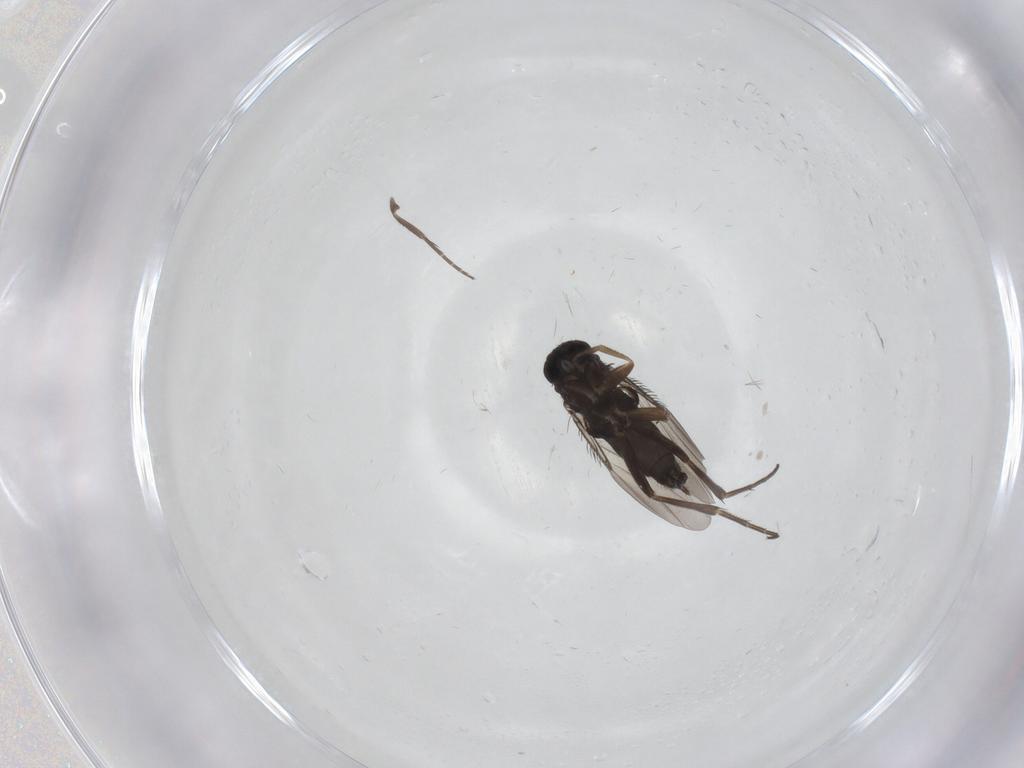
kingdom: Animalia
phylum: Arthropoda
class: Insecta
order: Diptera
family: Phoridae
